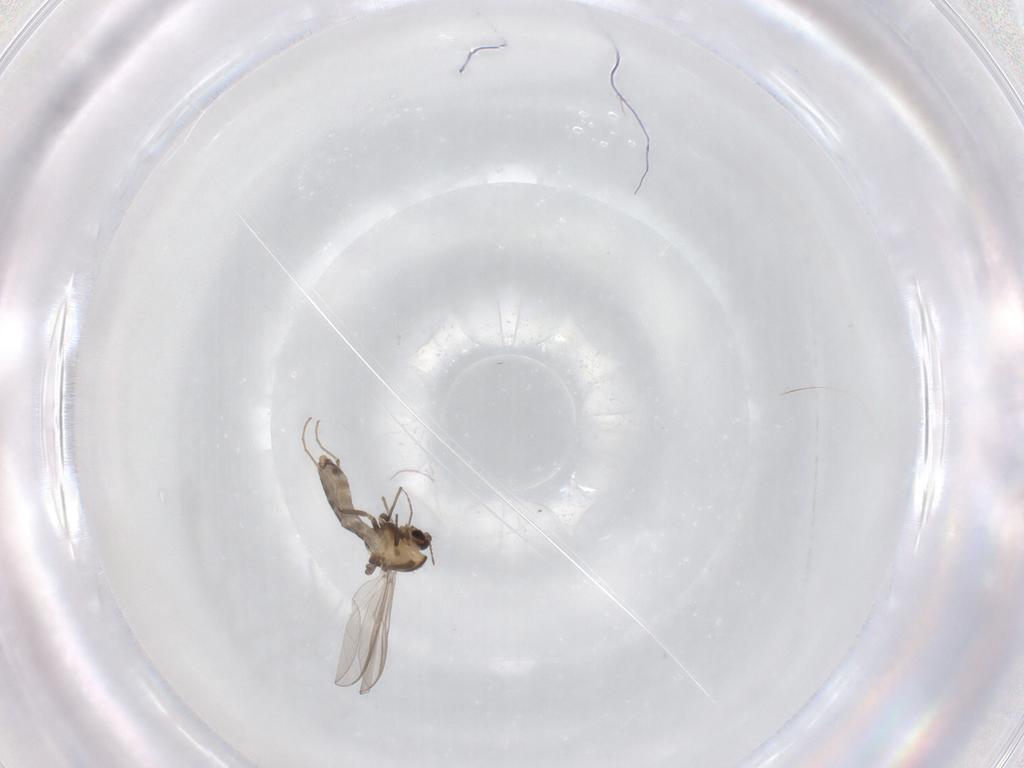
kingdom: Animalia
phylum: Arthropoda
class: Insecta
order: Diptera
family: Chironomidae
